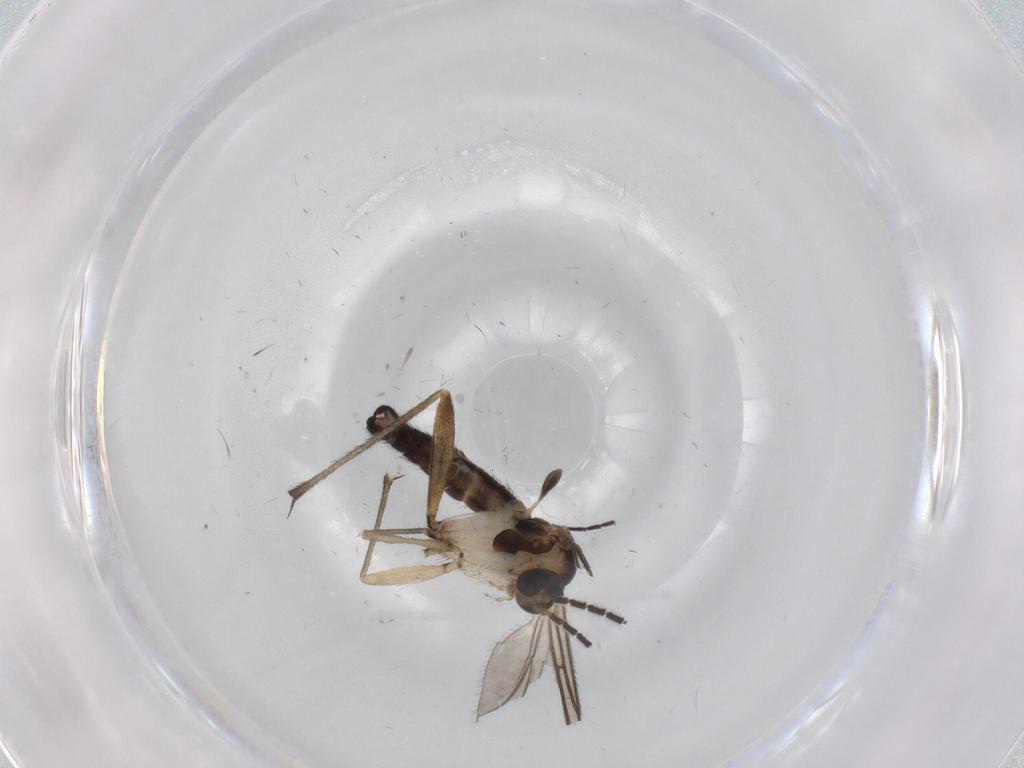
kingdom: Animalia
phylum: Arthropoda
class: Insecta
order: Diptera
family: Sciaridae
